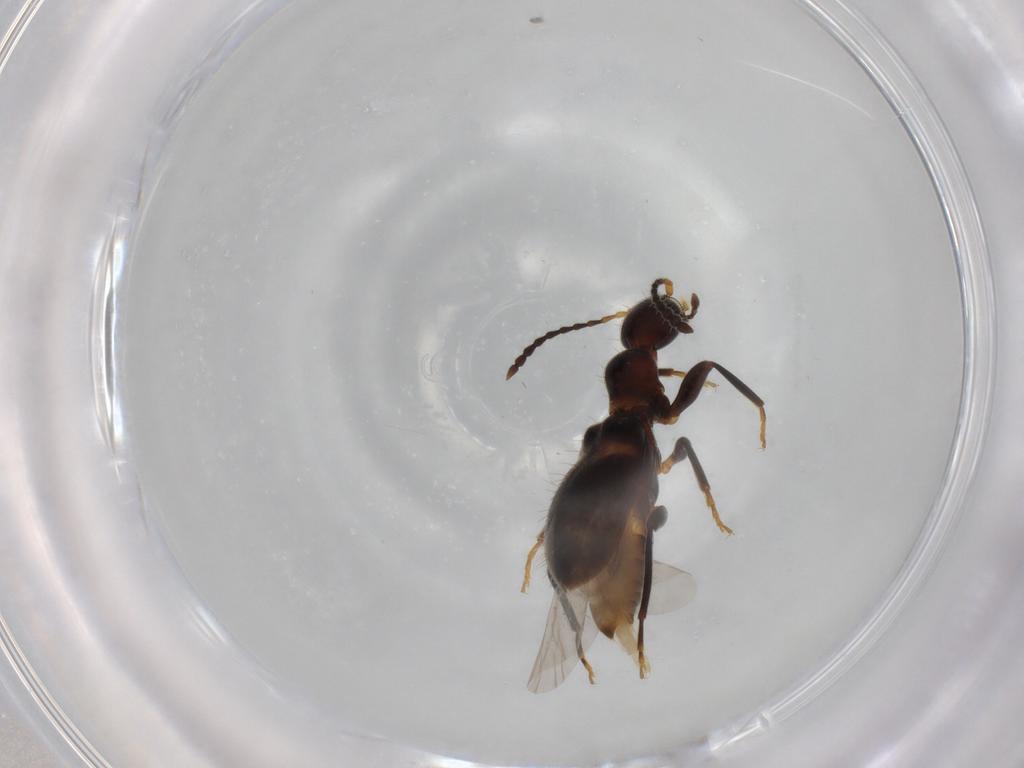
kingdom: Animalia
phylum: Arthropoda
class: Insecta
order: Coleoptera
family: Anthicidae
